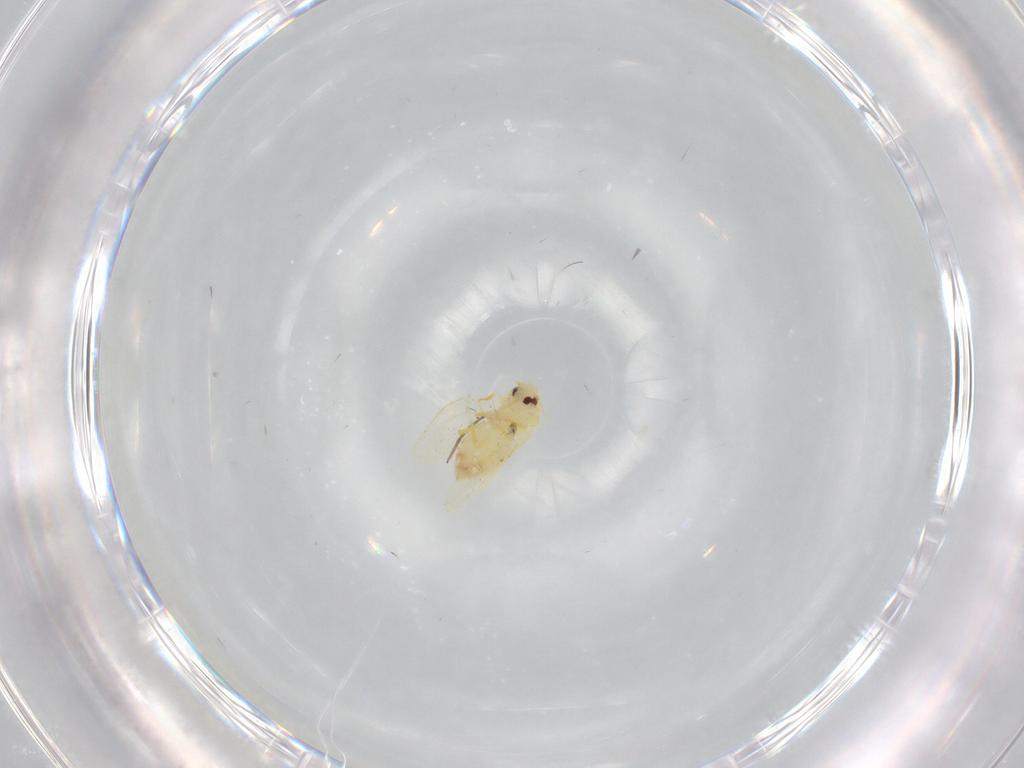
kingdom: Animalia
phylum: Arthropoda
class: Insecta
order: Hemiptera
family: Aleyrodidae
